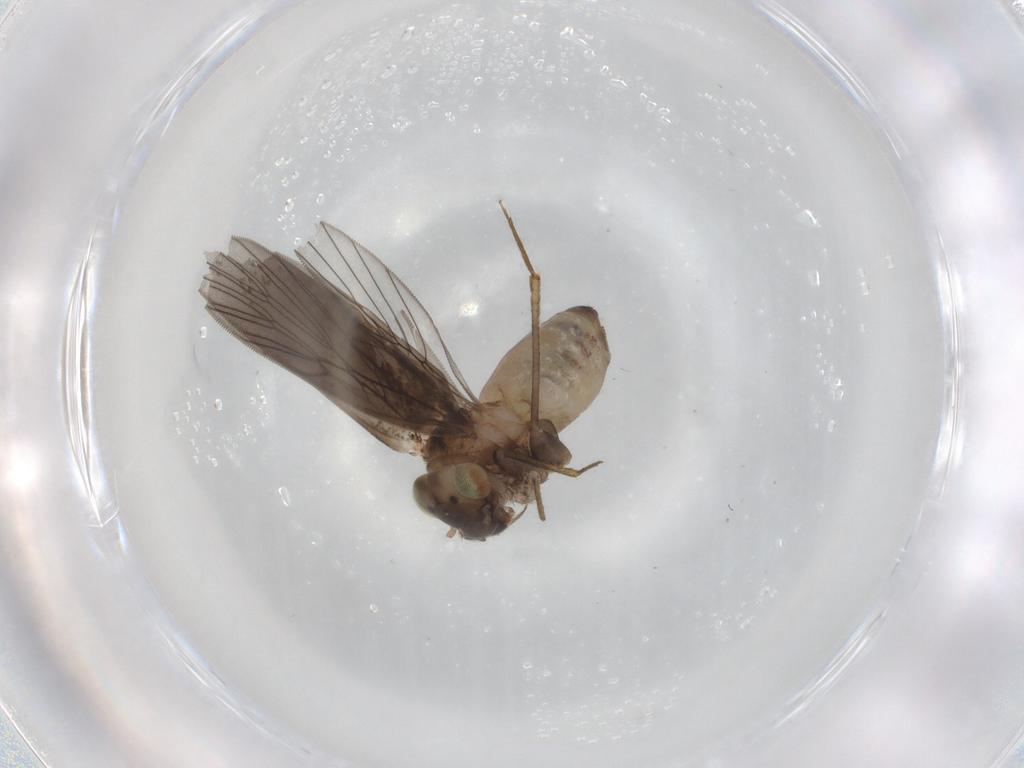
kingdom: Animalia
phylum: Arthropoda
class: Insecta
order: Psocodea
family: Lepidopsocidae
